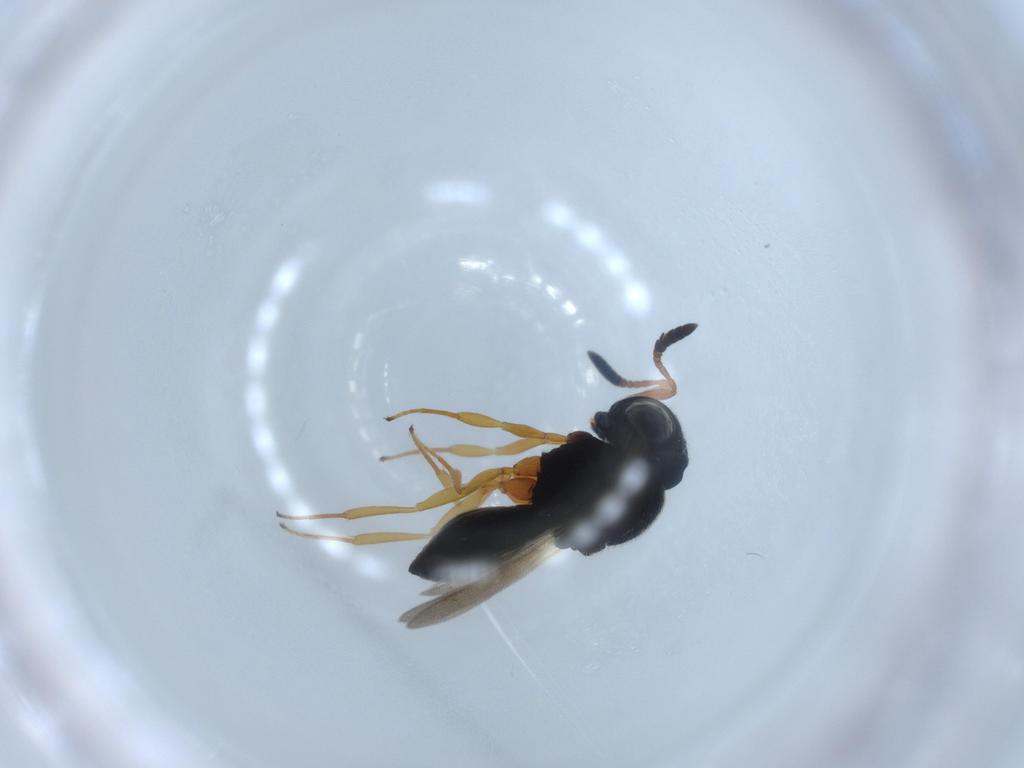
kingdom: Animalia
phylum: Arthropoda
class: Insecta
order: Hymenoptera
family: Scelionidae
